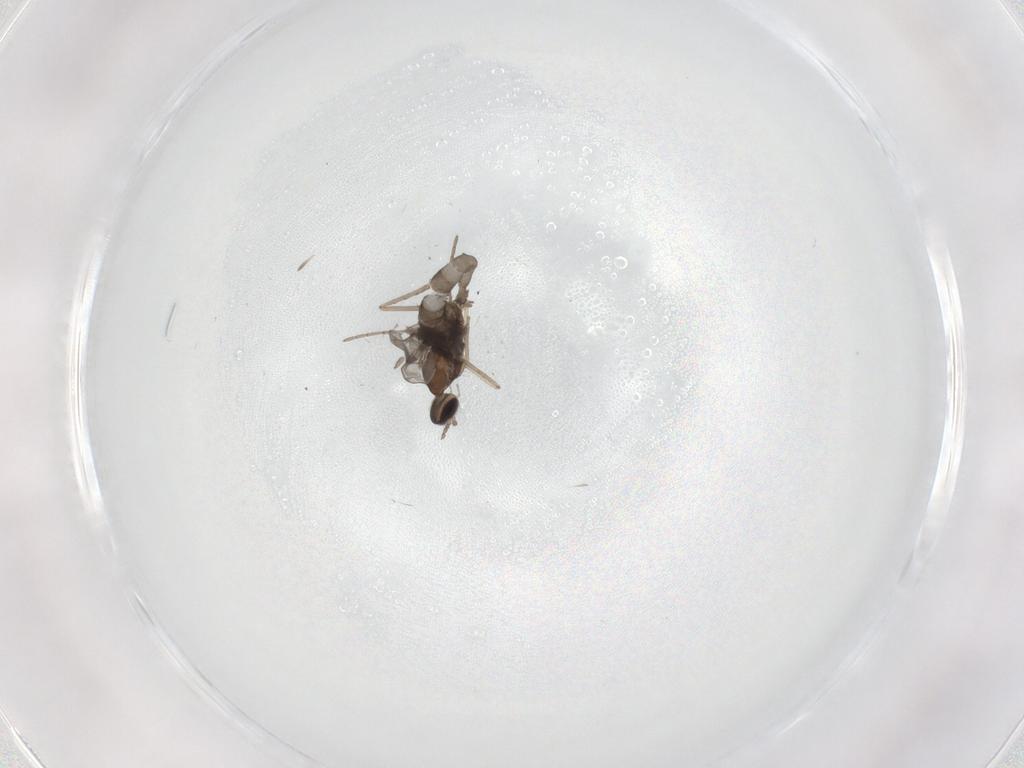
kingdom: Animalia
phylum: Arthropoda
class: Insecta
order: Diptera
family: Cecidomyiidae
